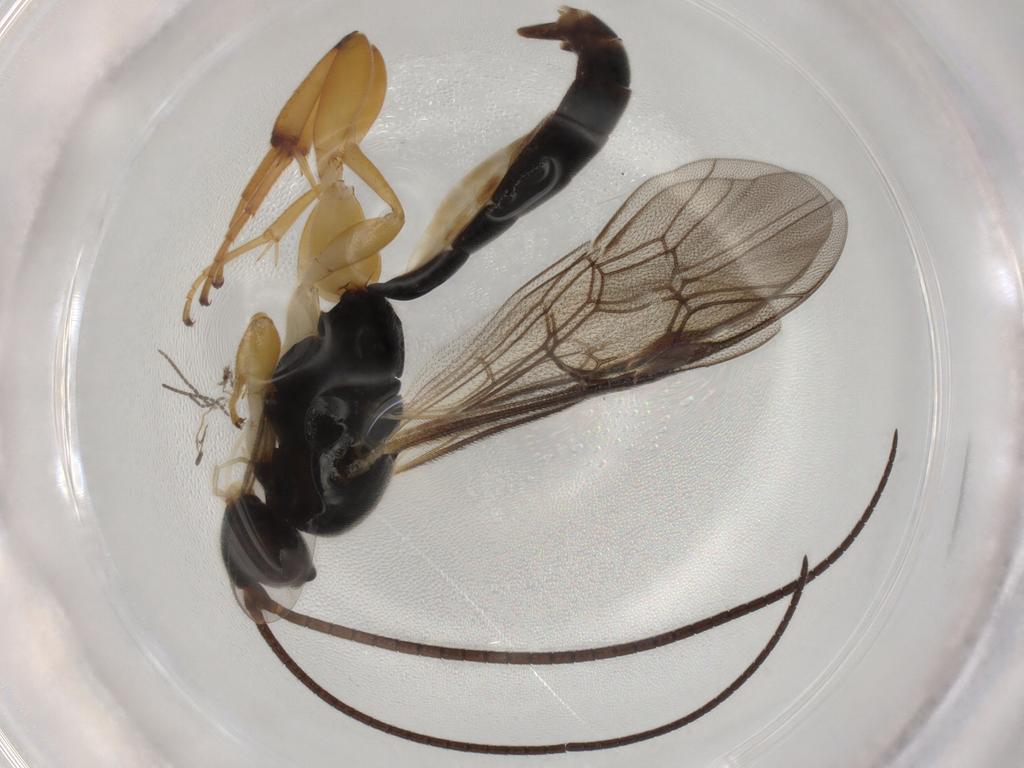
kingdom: Animalia
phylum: Arthropoda
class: Insecta
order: Hymenoptera
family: Ichneumonidae
